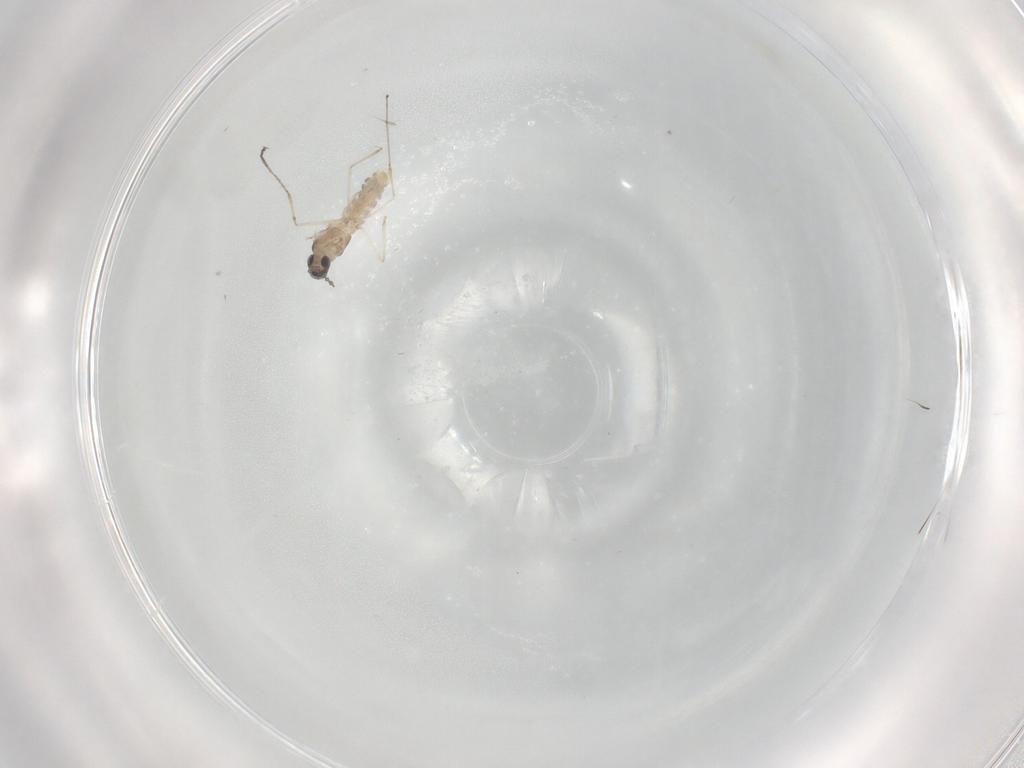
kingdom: Animalia
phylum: Arthropoda
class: Insecta
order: Diptera
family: Cecidomyiidae
